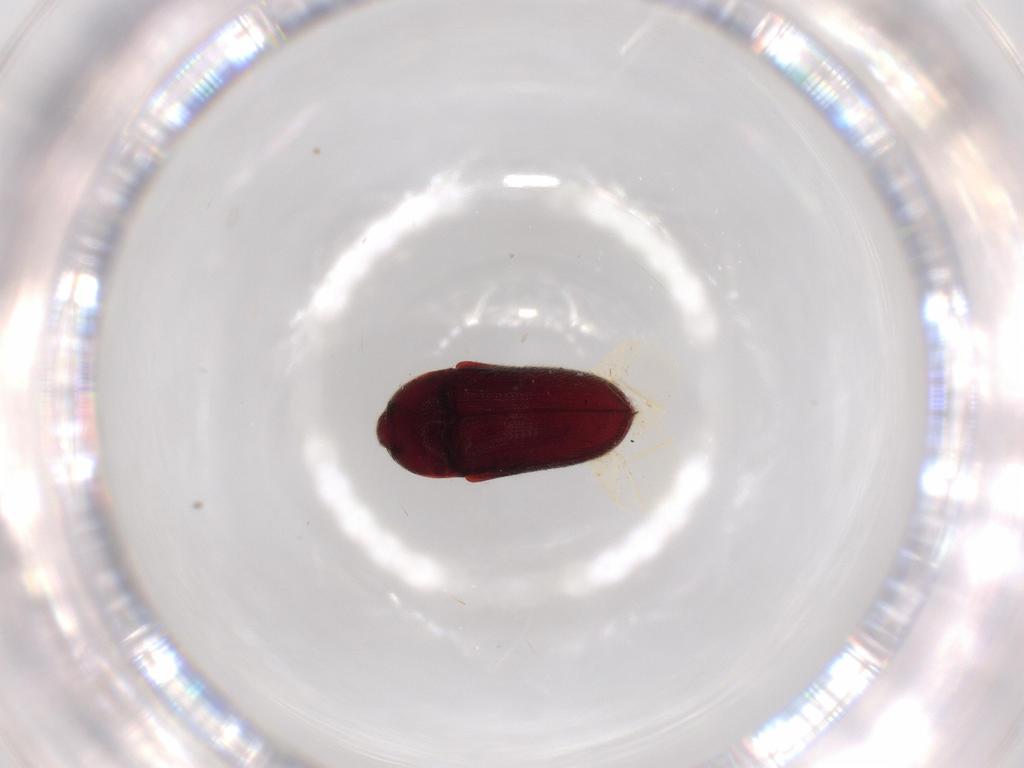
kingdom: Animalia
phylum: Arthropoda
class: Insecta
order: Coleoptera
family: Throscidae
